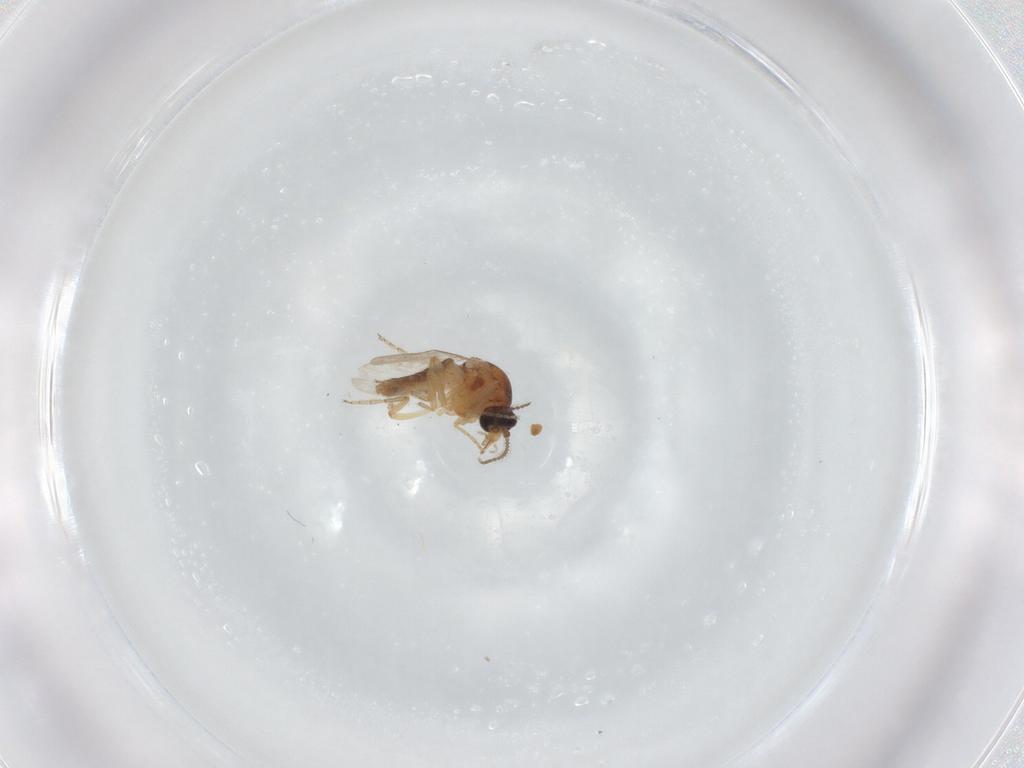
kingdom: Animalia
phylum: Arthropoda
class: Insecta
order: Diptera
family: Ceratopogonidae
